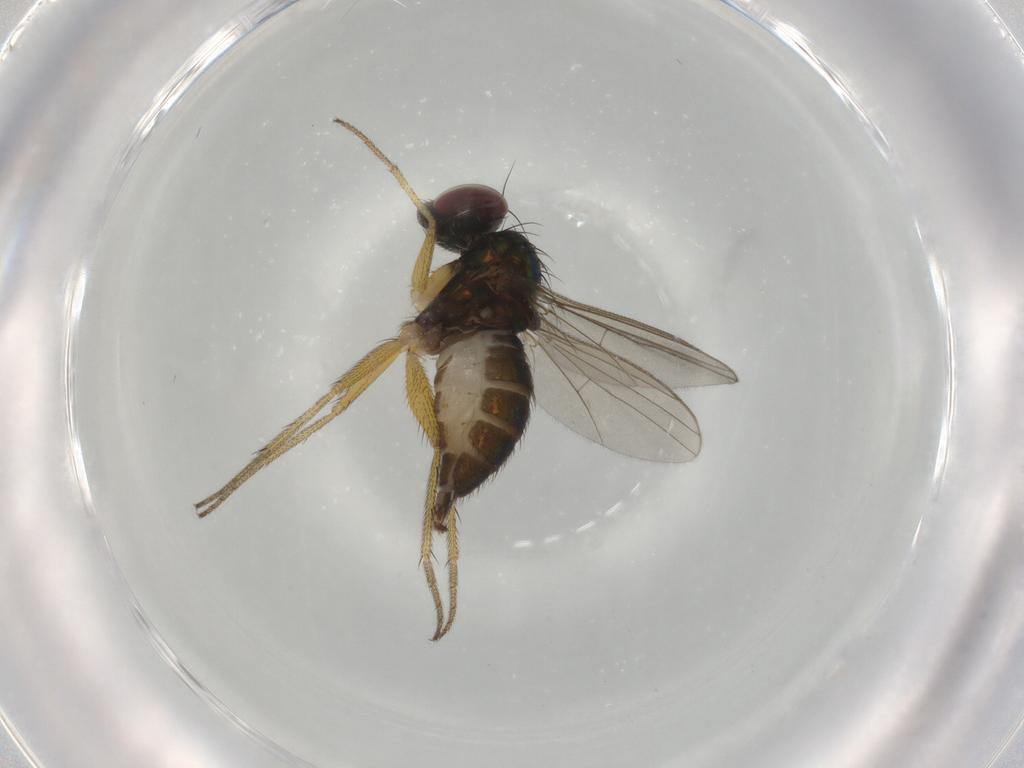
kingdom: Animalia
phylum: Arthropoda
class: Insecta
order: Diptera
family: Dolichopodidae
